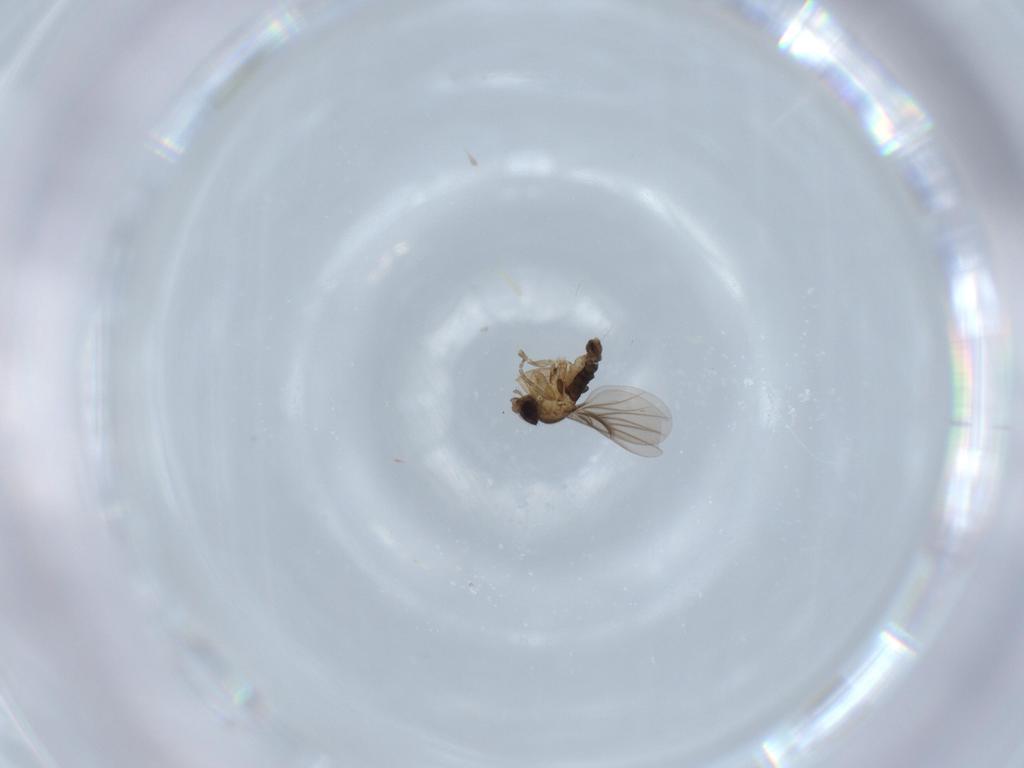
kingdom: Animalia
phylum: Arthropoda
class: Insecta
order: Diptera
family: Phoridae
